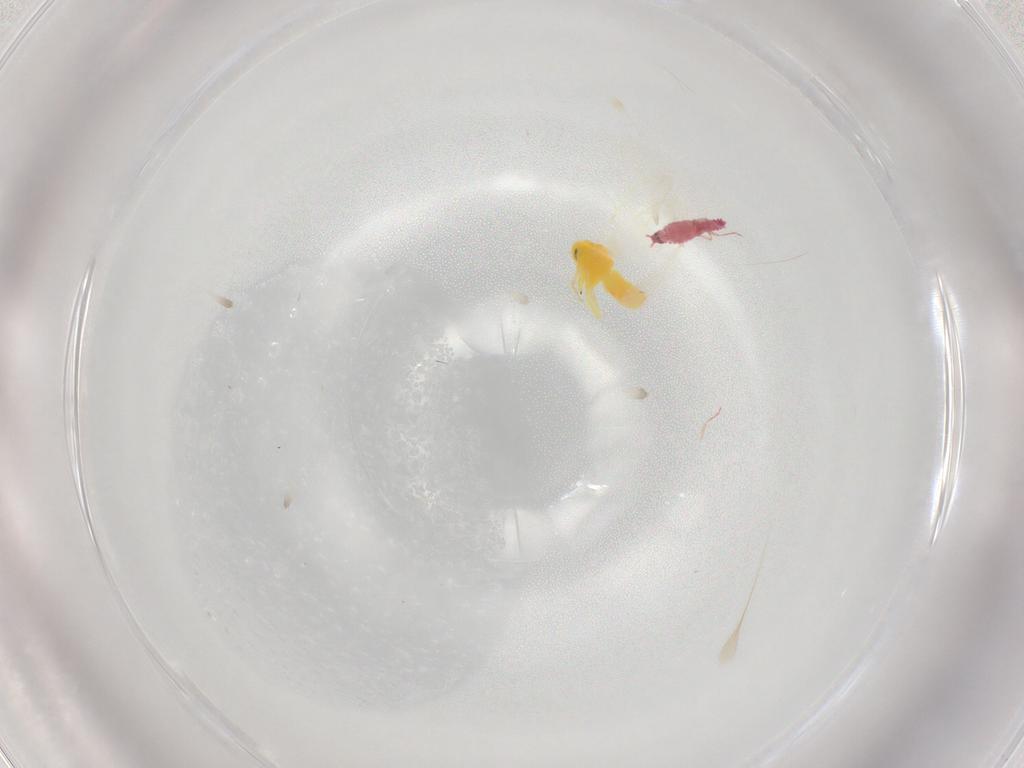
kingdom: Animalia
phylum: Arthropoda
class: Insecta
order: Hemiptera
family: Aleyrodidae
